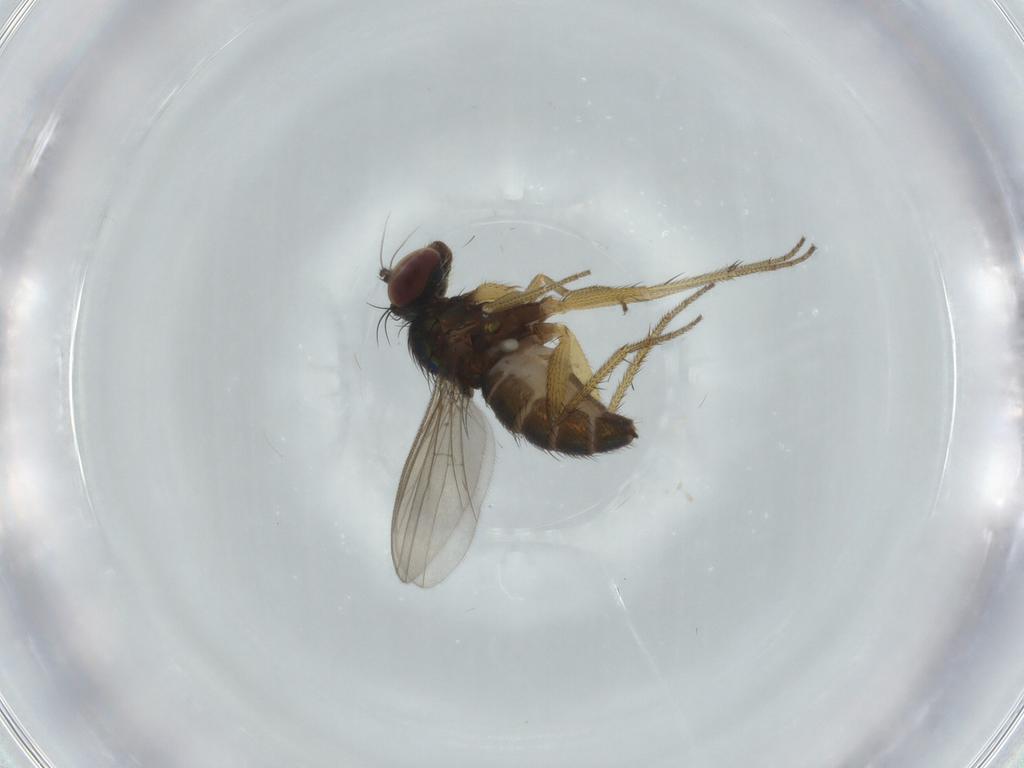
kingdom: Animalia
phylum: Arthropoda
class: Insecta
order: Diptera
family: Dolichopodidae
